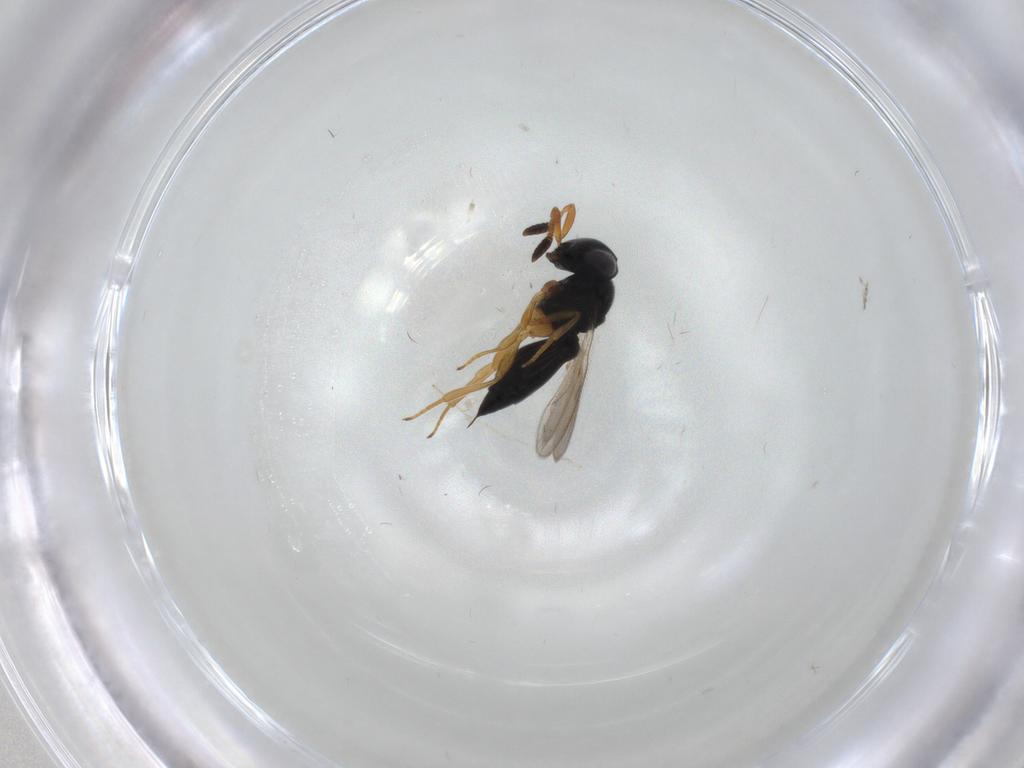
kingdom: Animalia
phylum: Arthropoda
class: Insecta
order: Hymenoptera
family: Scelionidae
